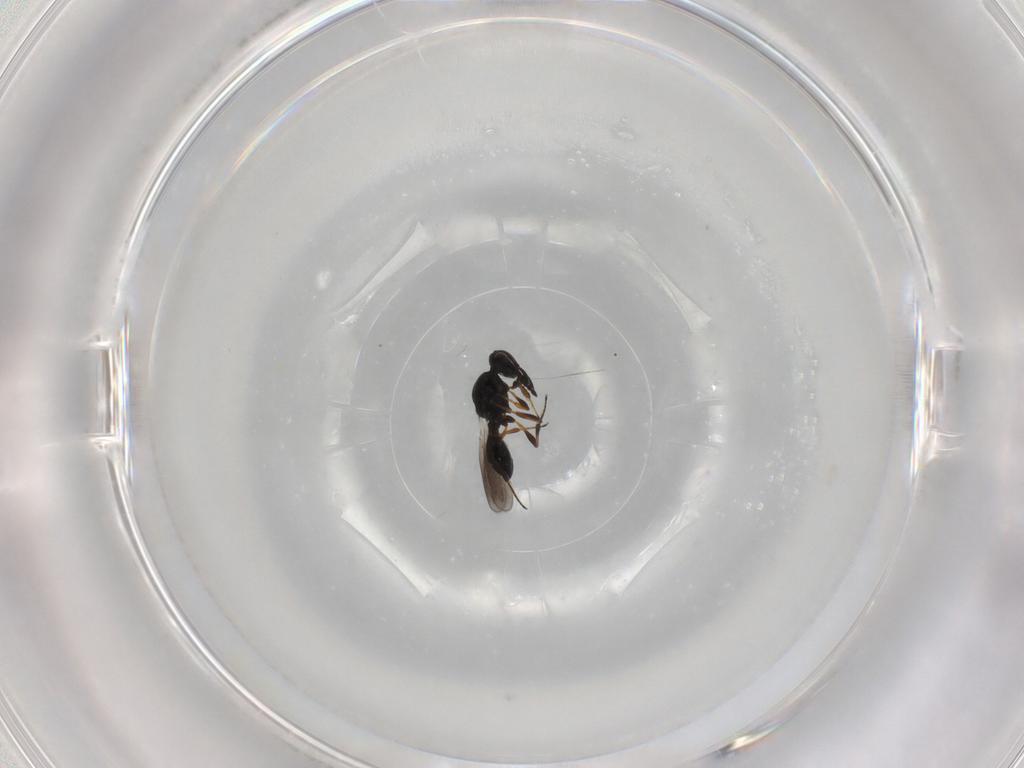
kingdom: Animalia
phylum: Arthropoda
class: Insecta
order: Hymenoptera
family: Platygastridae
